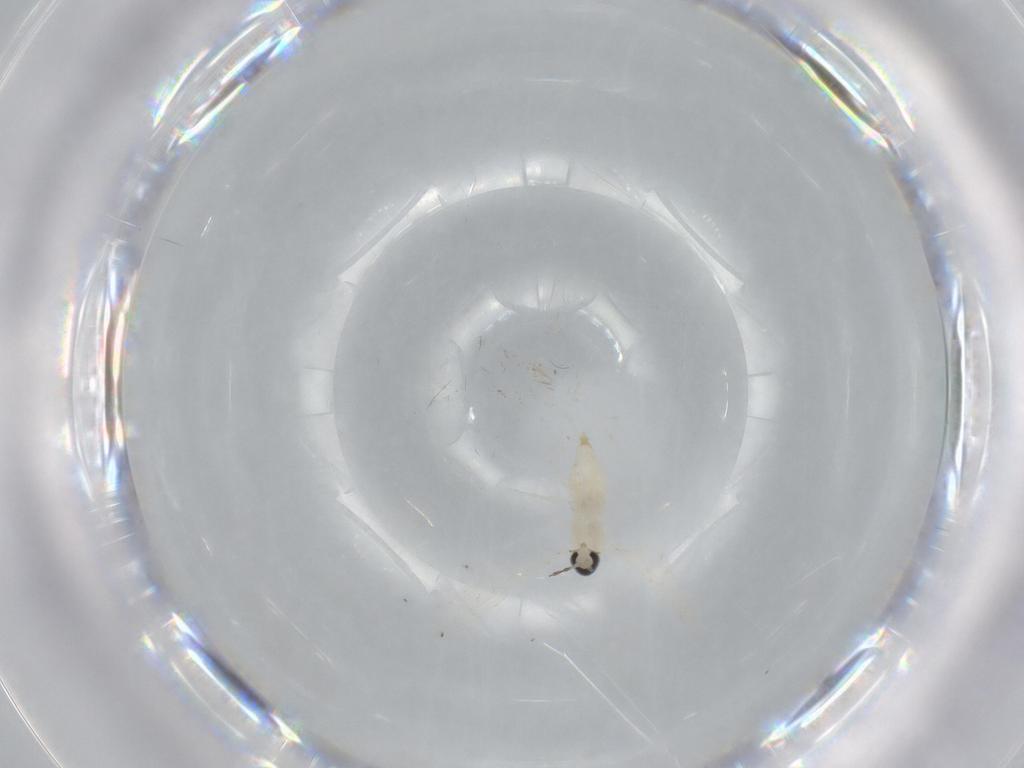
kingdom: Animalia
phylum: Arthropoda
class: Insecta
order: Diptera
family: Cecidomyiidae
